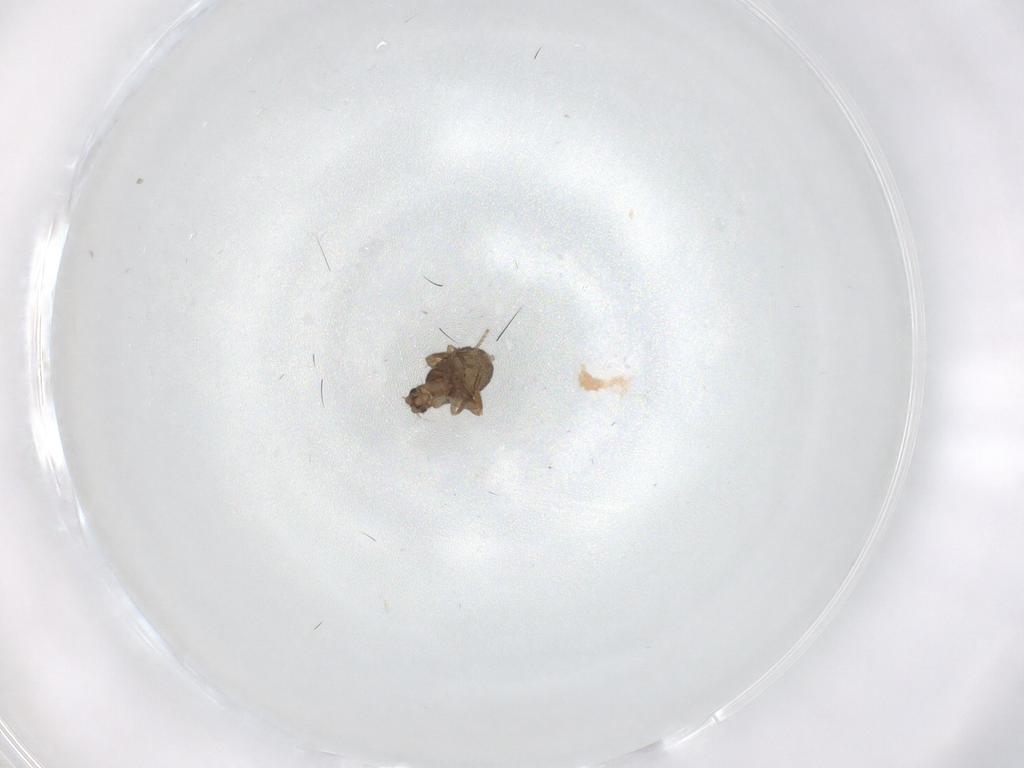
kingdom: Animalia
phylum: Arthropoda
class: Insecta
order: Diptera
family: Phoridae
